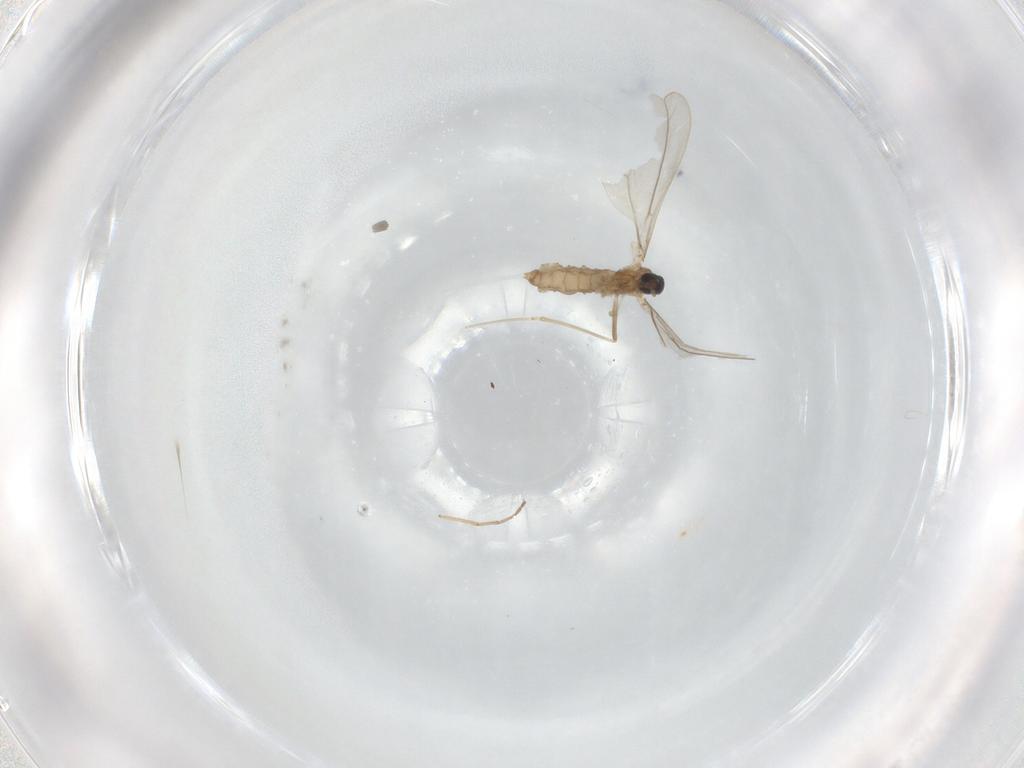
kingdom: Animalia
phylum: Arthropoda
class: Insecta
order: Diptera
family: Cecidomyiidae
